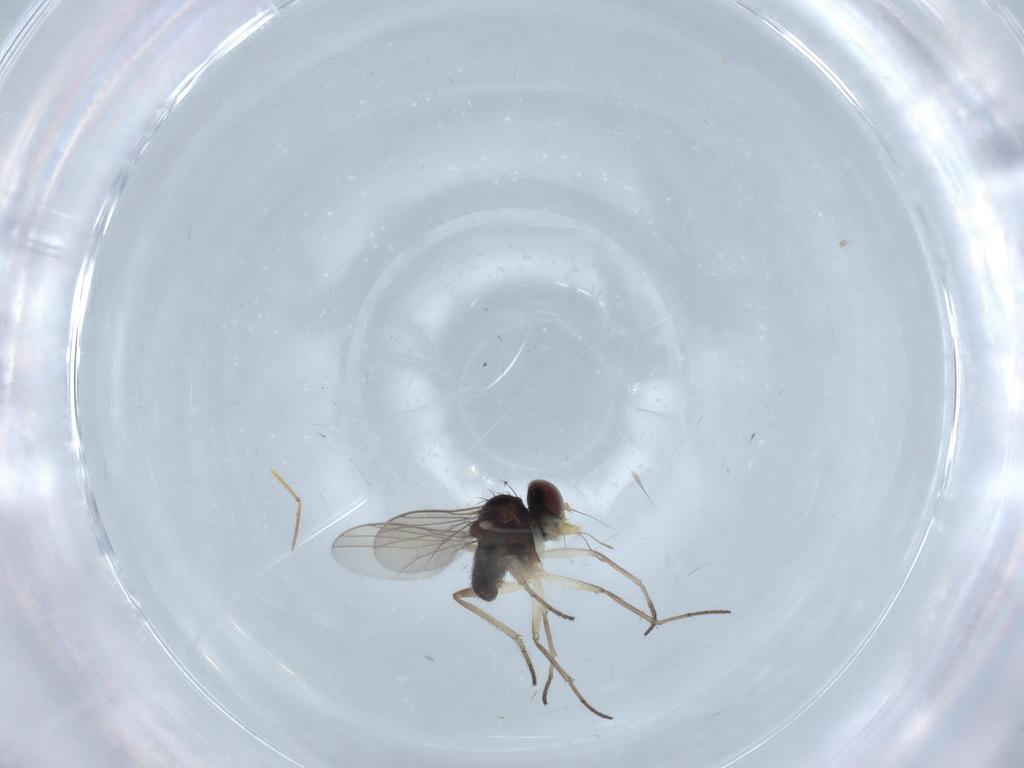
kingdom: Animalia
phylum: Arthropoda
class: Insecta
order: Diptera
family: Dolichopodidae
